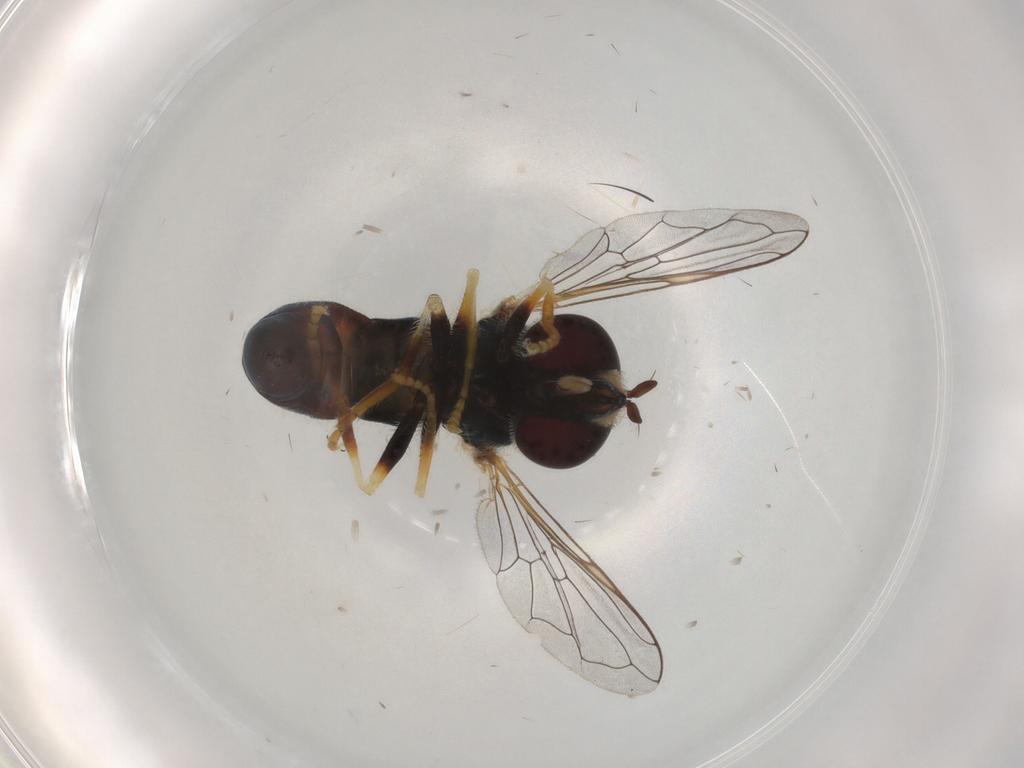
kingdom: Animalia
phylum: Arthropoda
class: Insecta
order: Diptera
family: Syrphidae
